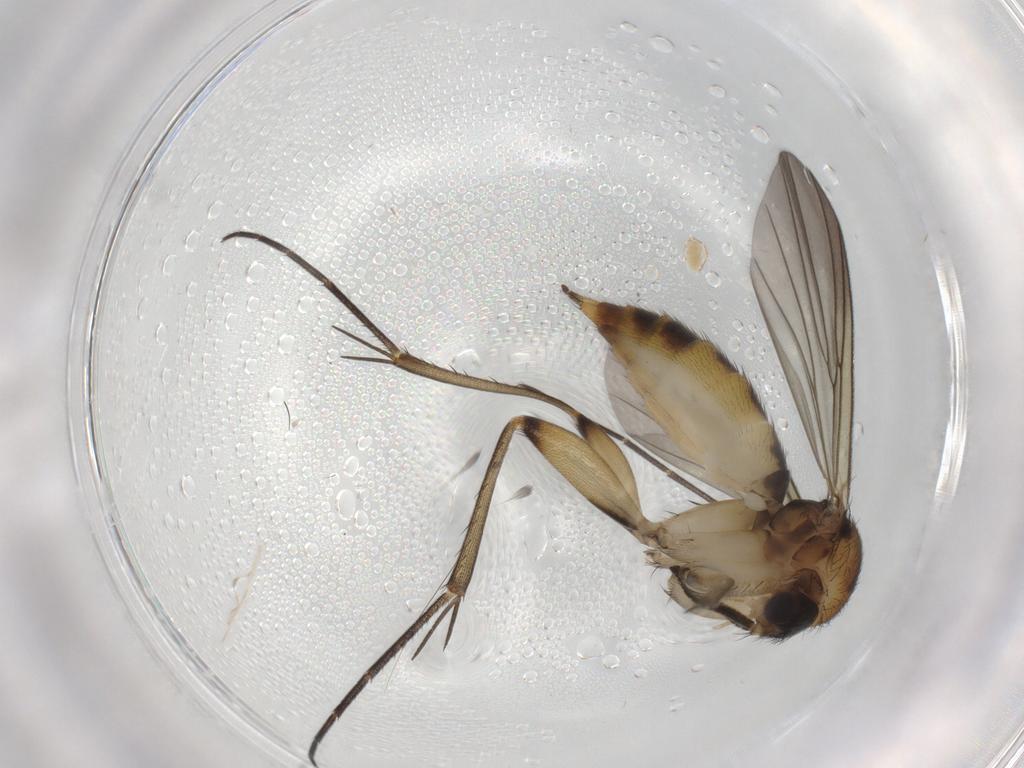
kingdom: Animalia
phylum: Arthropoda
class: Insecta
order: Diptera
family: Mycetophilidae
